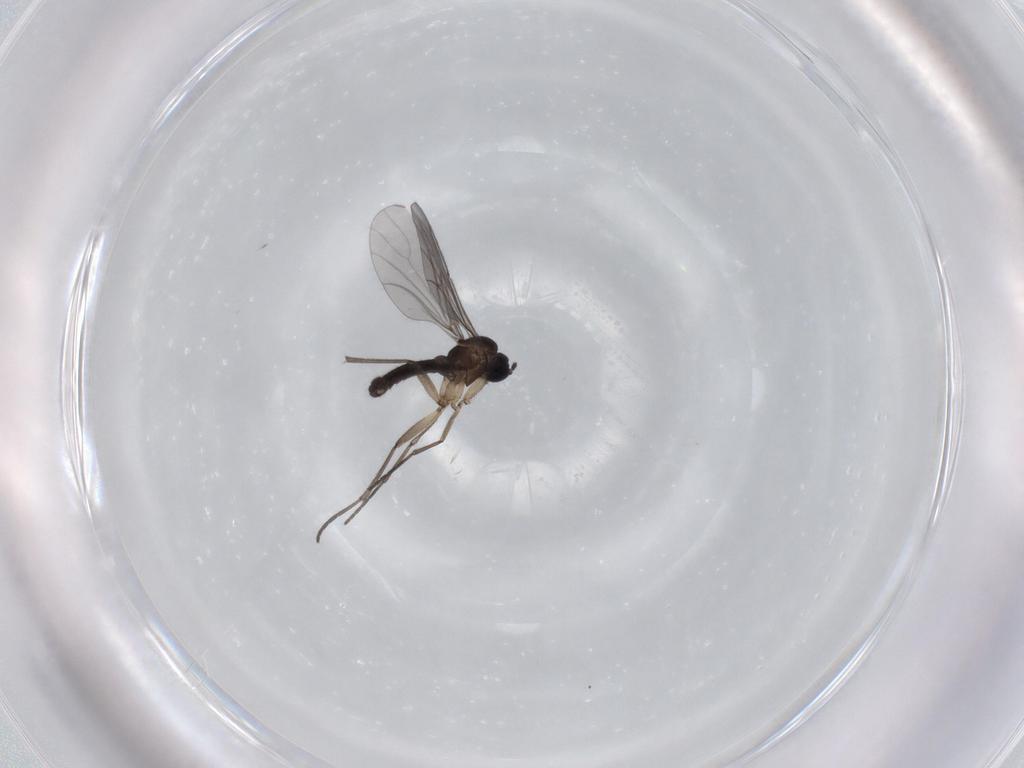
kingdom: Animalia
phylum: Arthropoda
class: Insecta
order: Diptera
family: Sciaridae
